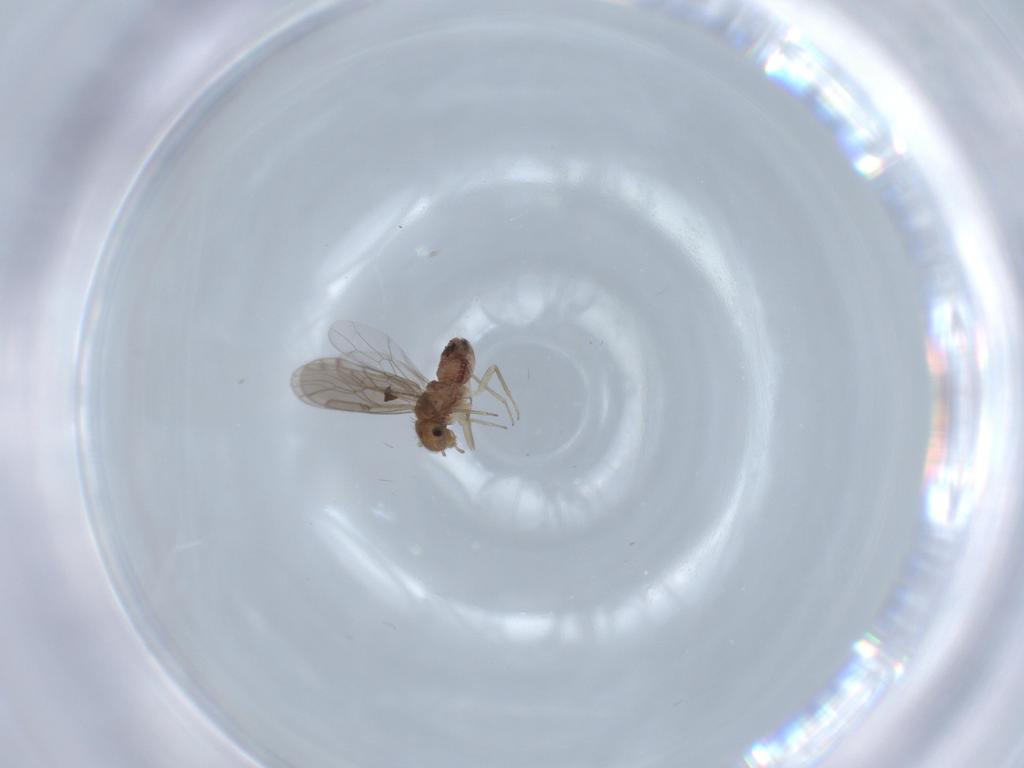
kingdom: Animalia
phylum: Arthropoda
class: Insecta
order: Psocodea
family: Ectopsocidae
